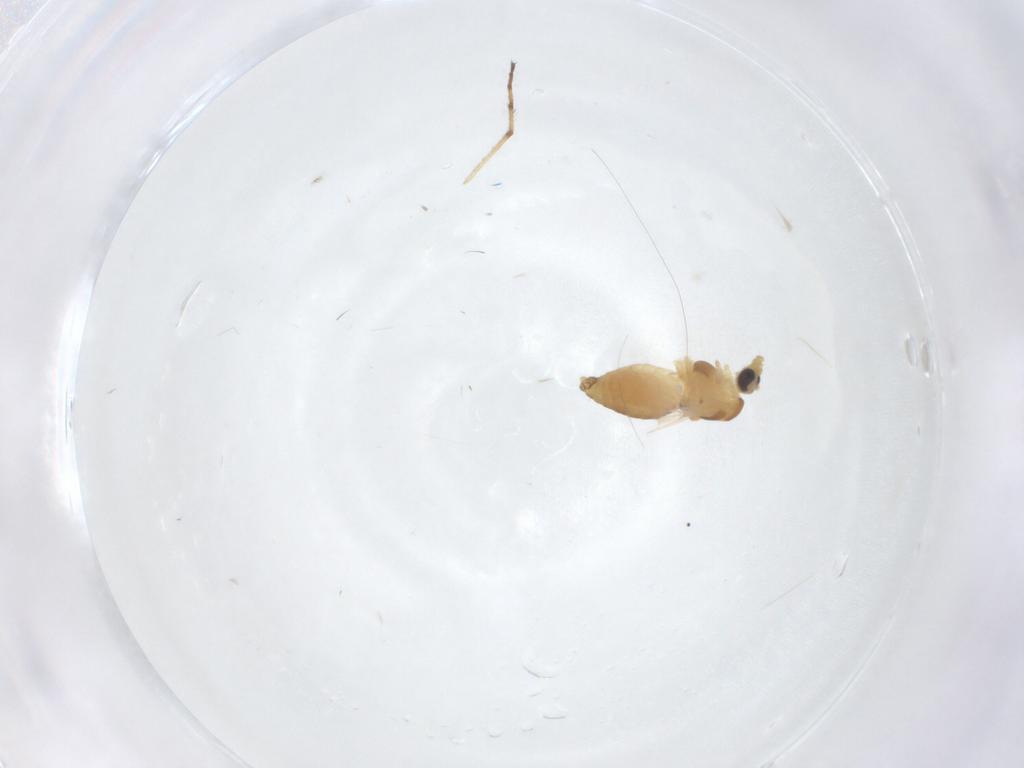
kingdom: Animalia
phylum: Arthropoda
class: Insecta
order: Diptera
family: Chironomidae
